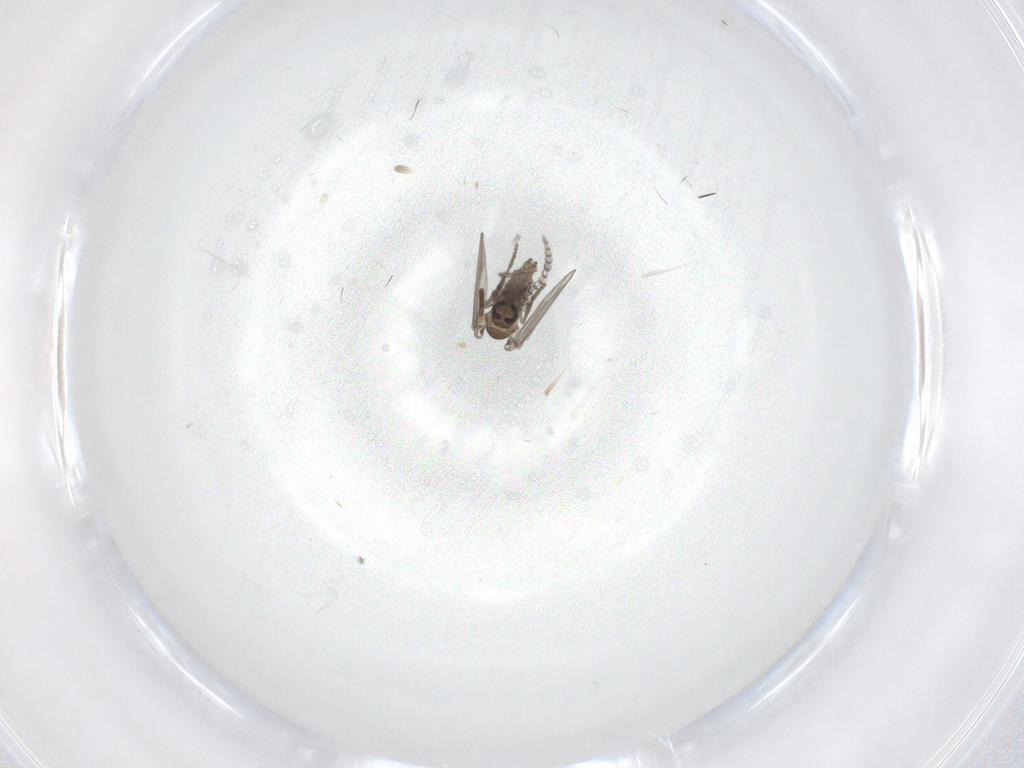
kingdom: Animalia
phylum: Arthropoda
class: Insecta
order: Diptera
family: Psychodidae
